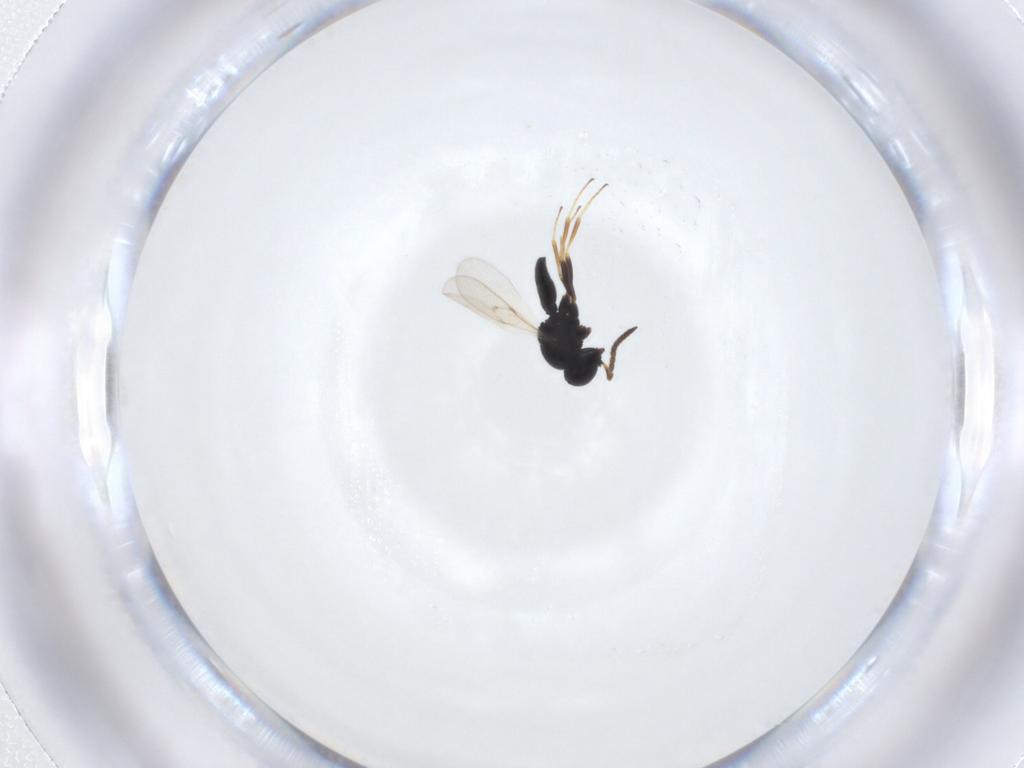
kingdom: Animalia
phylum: Arthropoda
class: Insecta
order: Hymenoptera
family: Scelionidae
